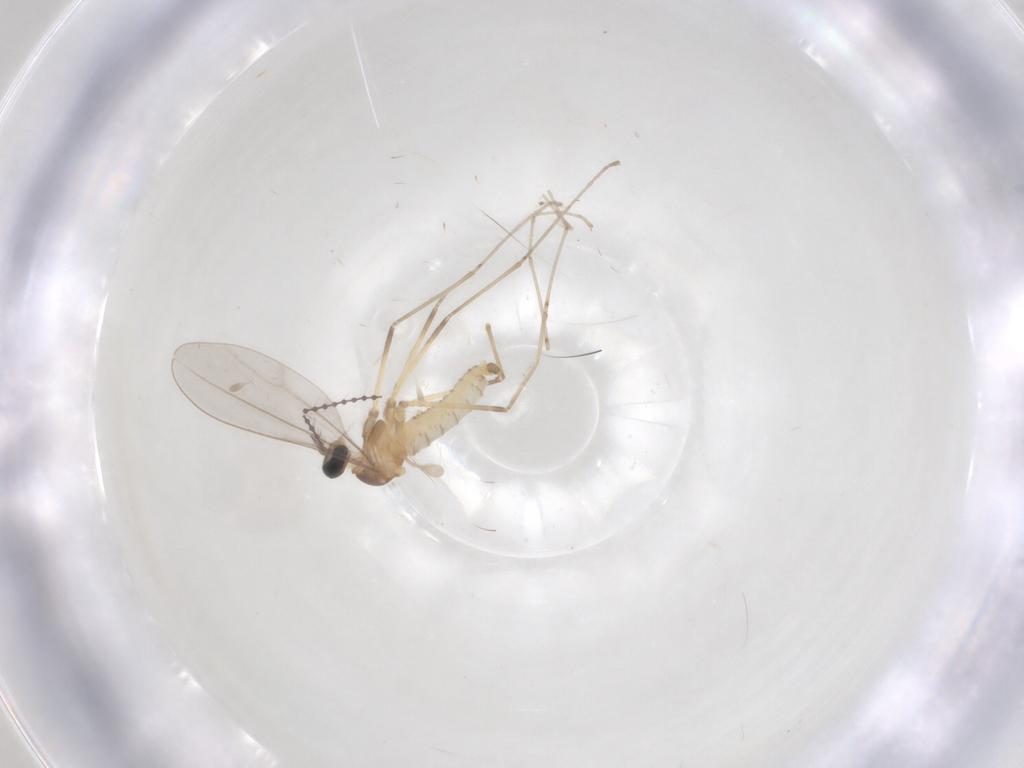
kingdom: Animalia
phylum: Arthropoda
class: Insecta
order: Diptera
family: Cecidomyiidae
